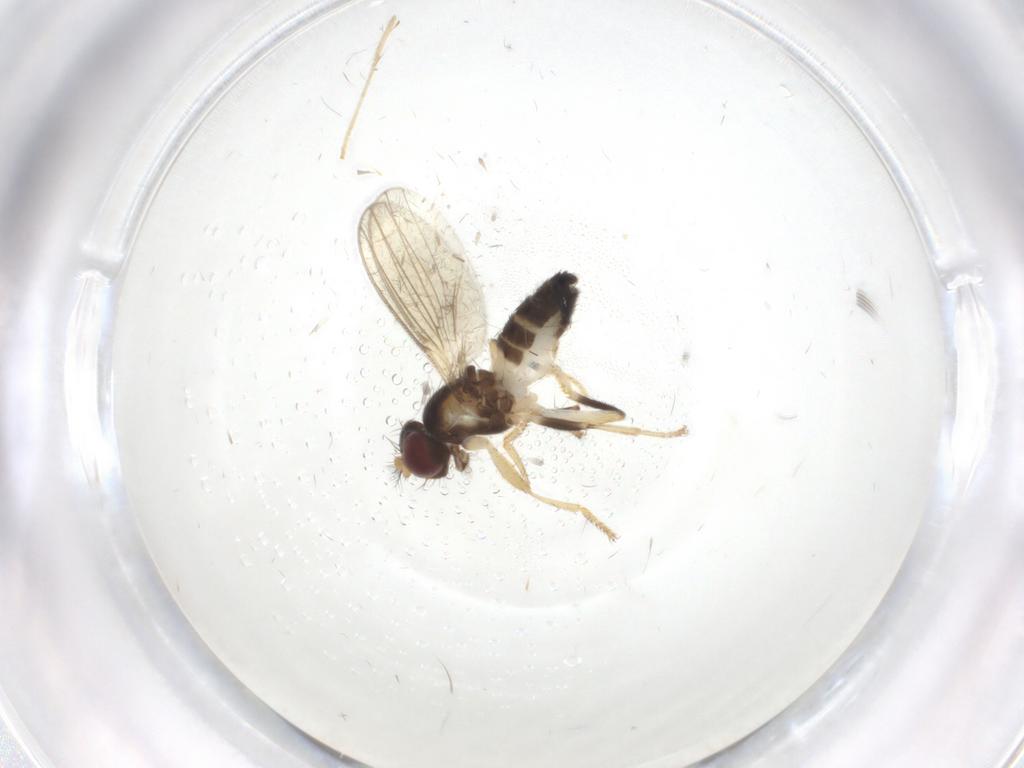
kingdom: Animalia
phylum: Arthropoda
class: Insecta
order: Diptera
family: Periscelididae
